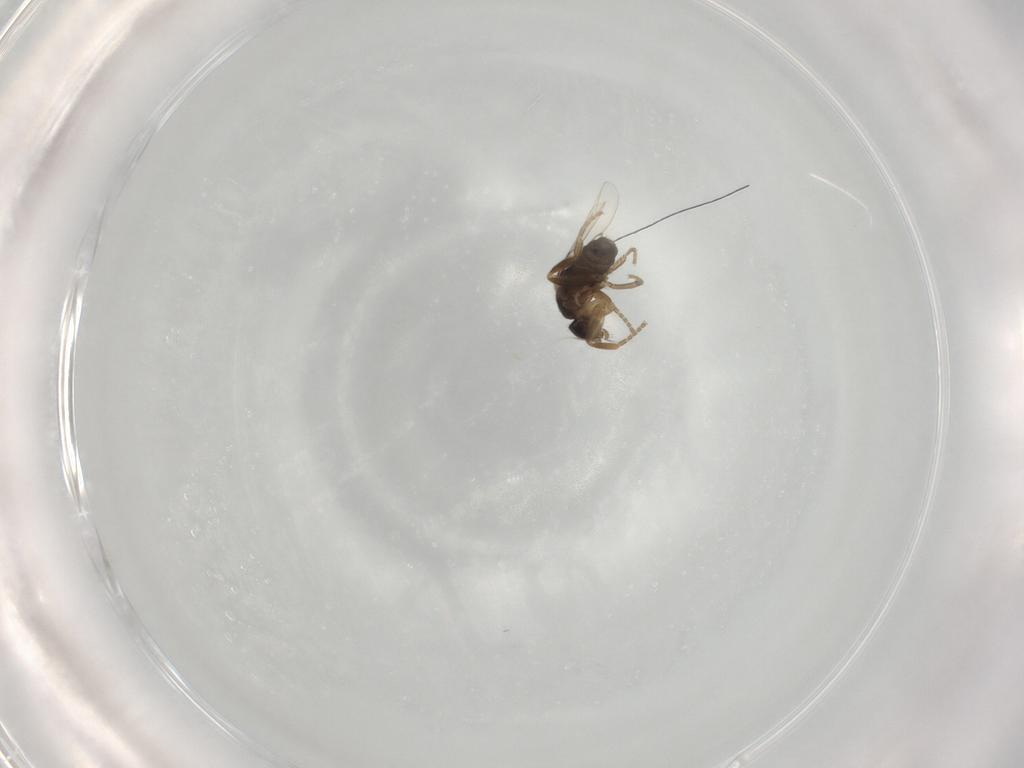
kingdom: Animalia
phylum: Arthropoda
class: Insecta
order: Diptera
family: Phoridae
